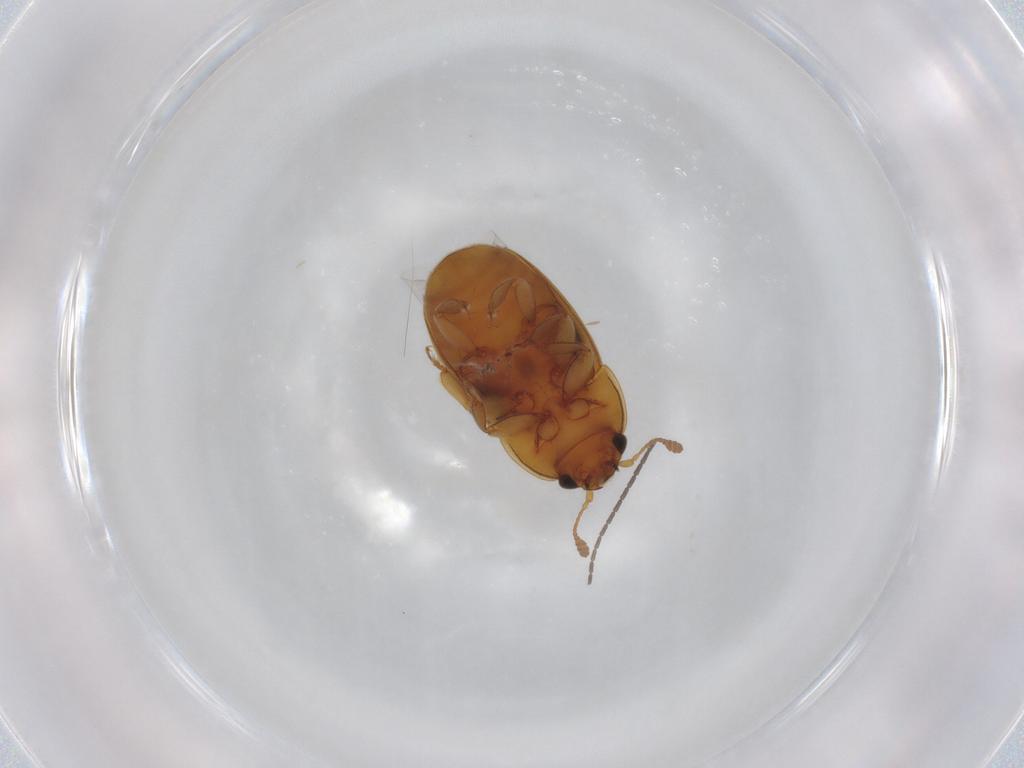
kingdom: Animalia
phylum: Arthropoda
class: Insecta
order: Coleoptera
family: Nitidulidae
